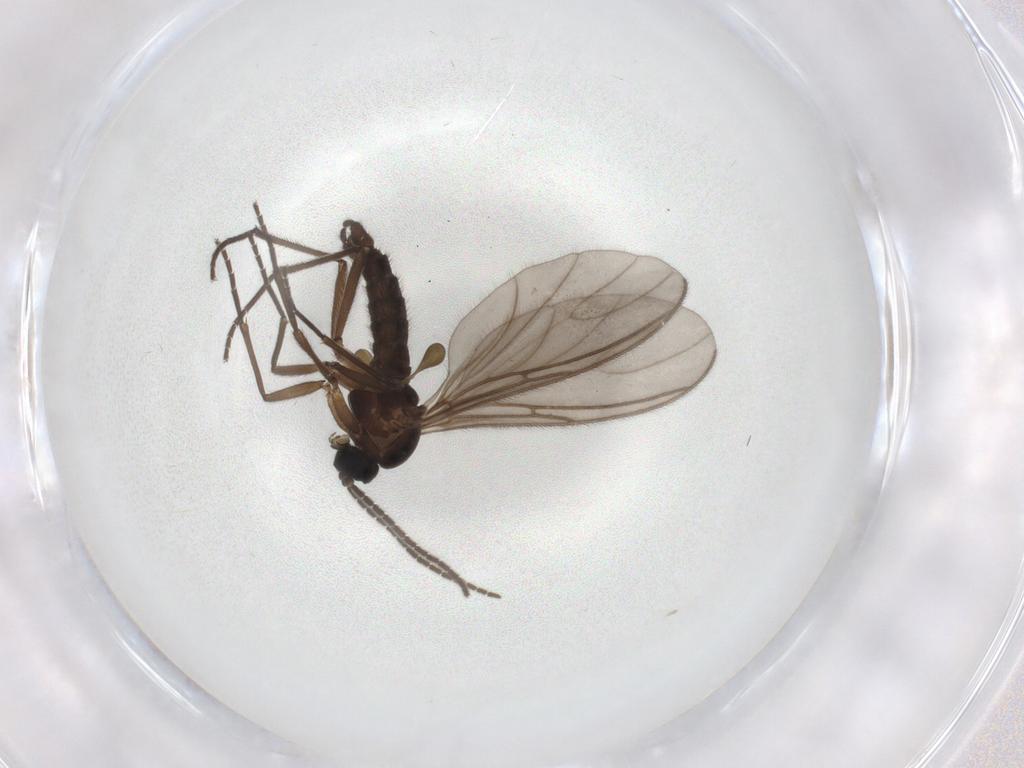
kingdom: Animalia
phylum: Arthropoda
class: Insecta
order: Diptera
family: Sciaridae
